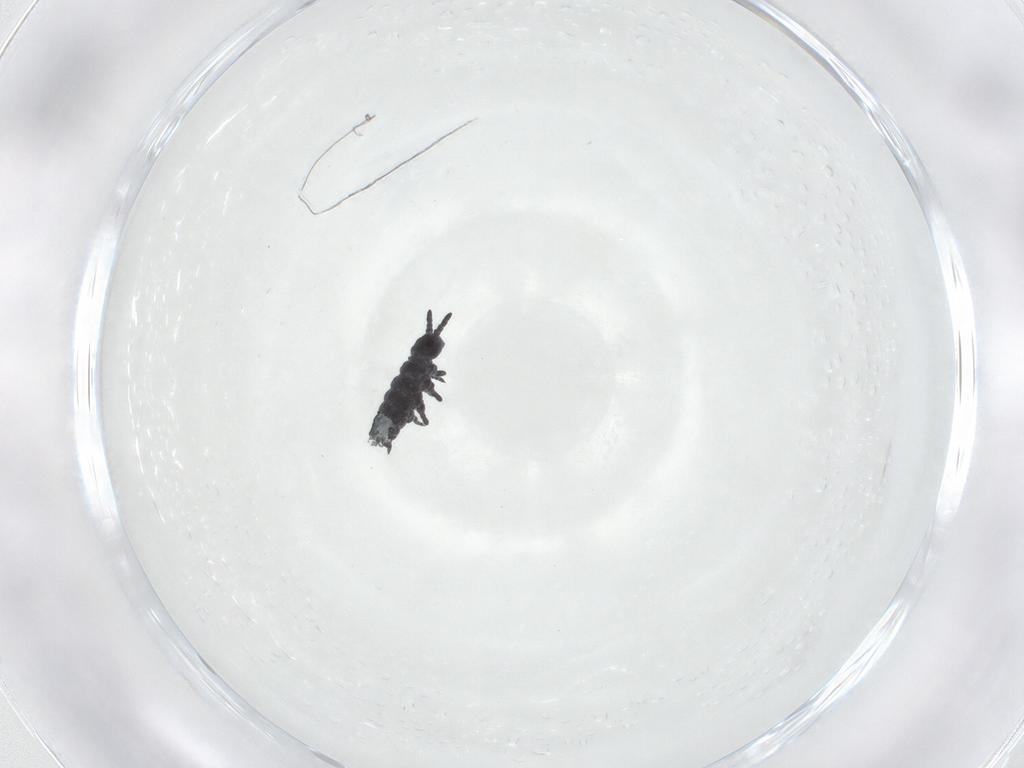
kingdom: Animalia
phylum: Arthropoda
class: Collembola
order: Poduromorpha
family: Hypogastruridae
